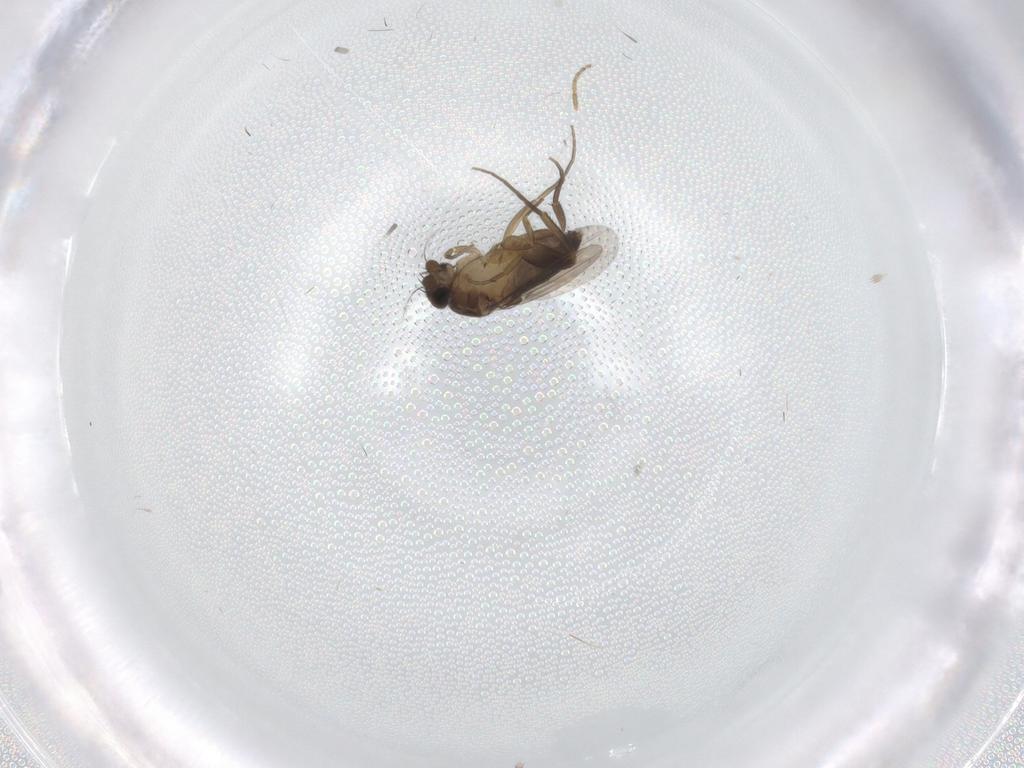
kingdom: Animalia
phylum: Arthropoda
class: Insecta
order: Diptera
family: Phoridae
